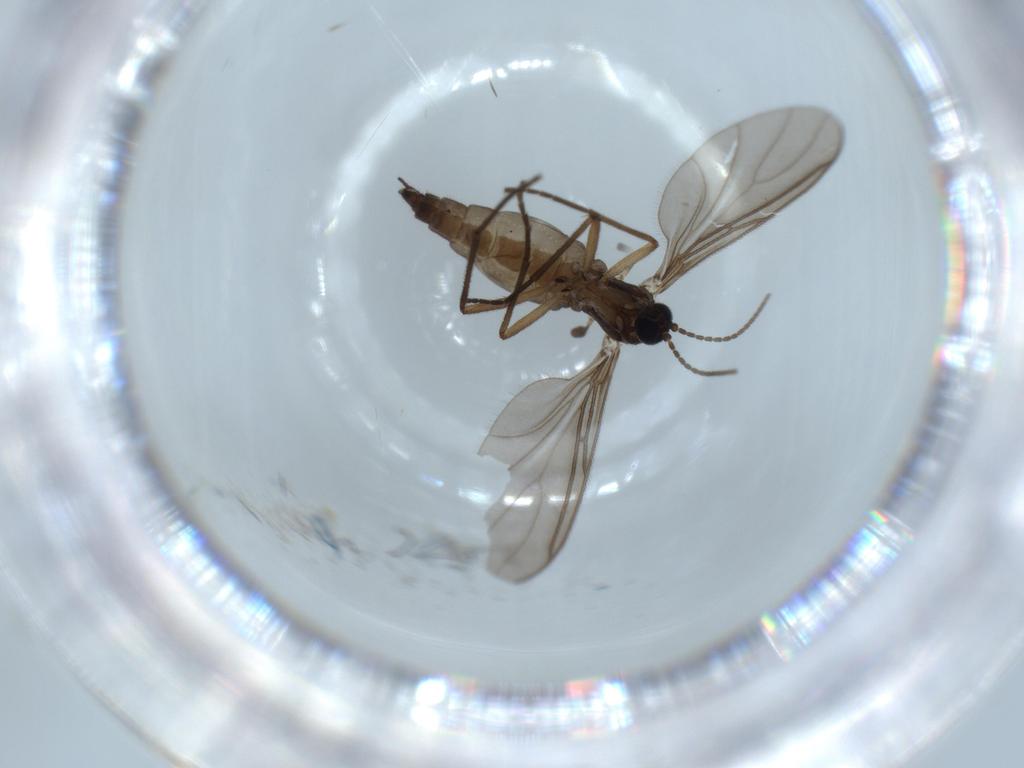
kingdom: Animalia
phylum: Arthropoda
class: Insecta
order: Diptera
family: Sciaridae
